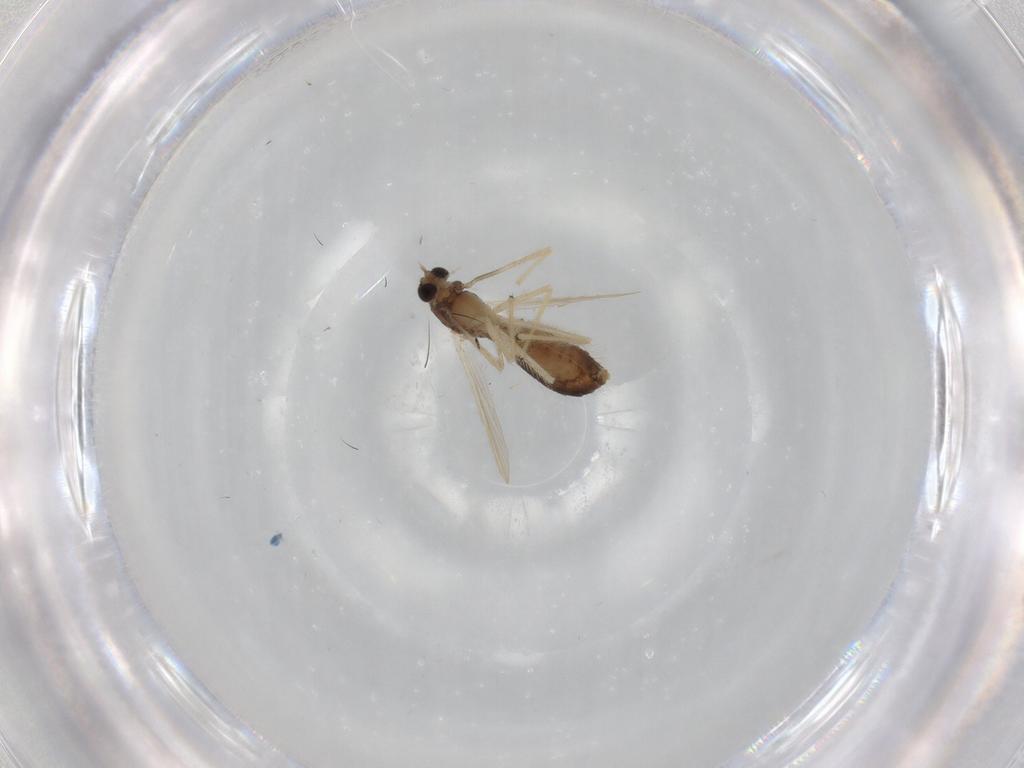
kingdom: Animalia
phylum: Arthropoda
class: Insecta
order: Diptera
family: Chironomidae
